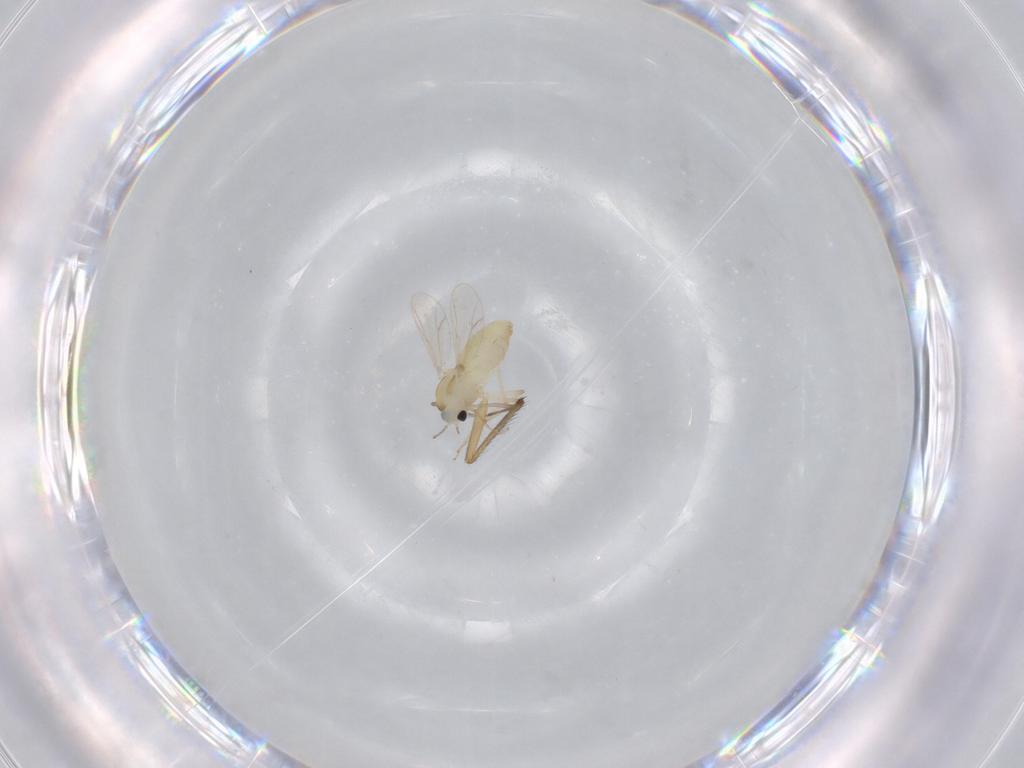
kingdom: Animalia
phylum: Arthropoda
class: Insecta
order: Diptera
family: Chironomidae
